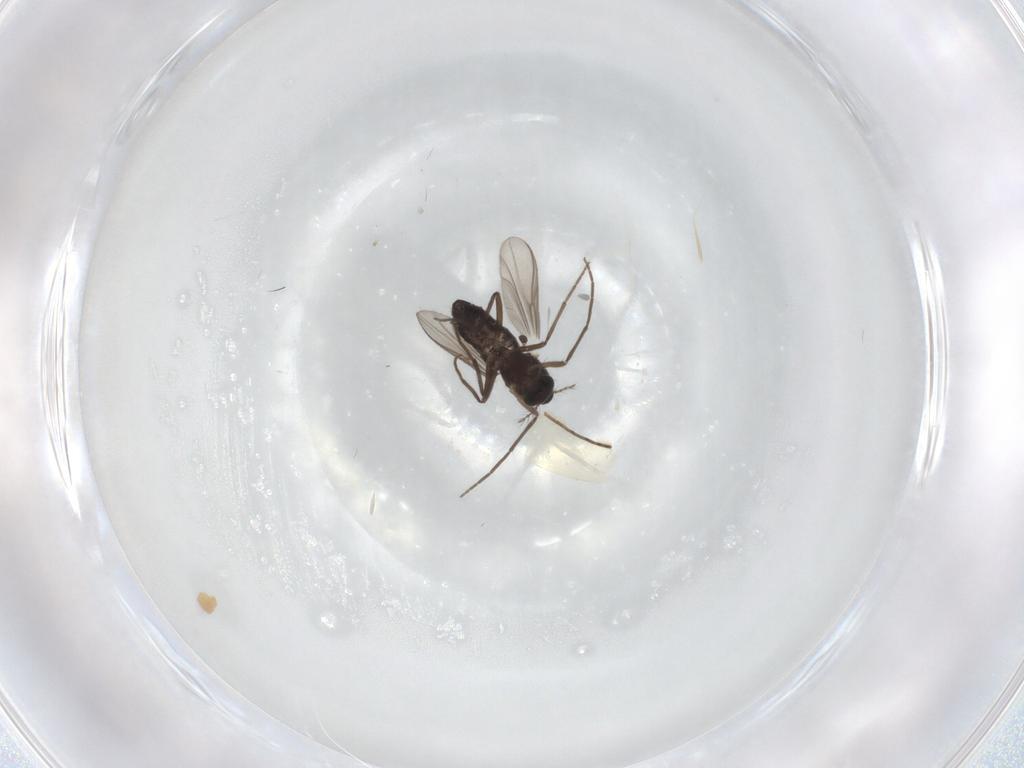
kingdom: Animalia
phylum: Arthropoda
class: Insecta
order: Diptera
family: Chironomidae
